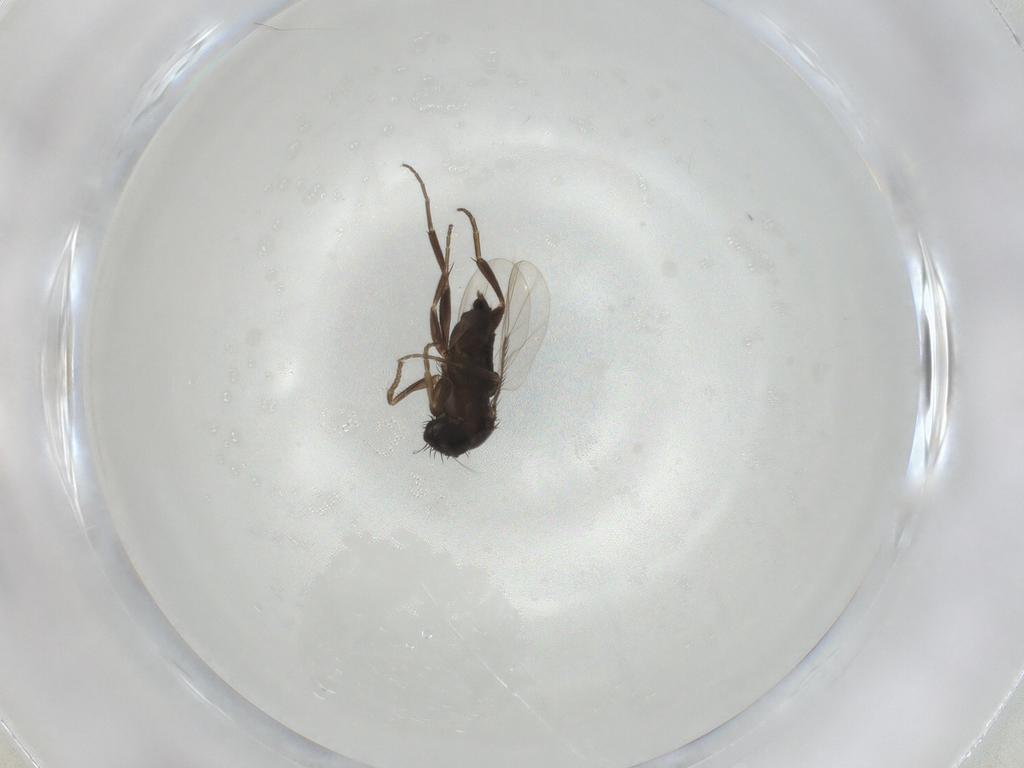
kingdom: Animalia
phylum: Arthropoda
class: Insecta
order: Diptera
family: Phoridae
